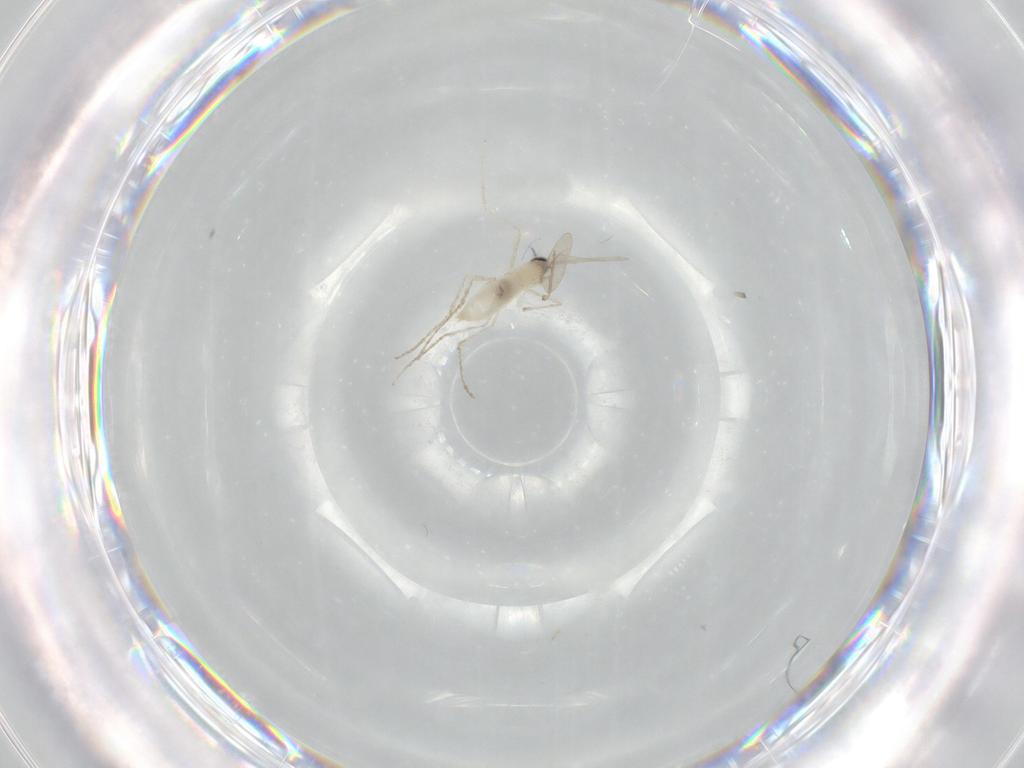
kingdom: Animalia
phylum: Arthropoda
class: Insecta
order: Diptera
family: Cecidomyiidae
